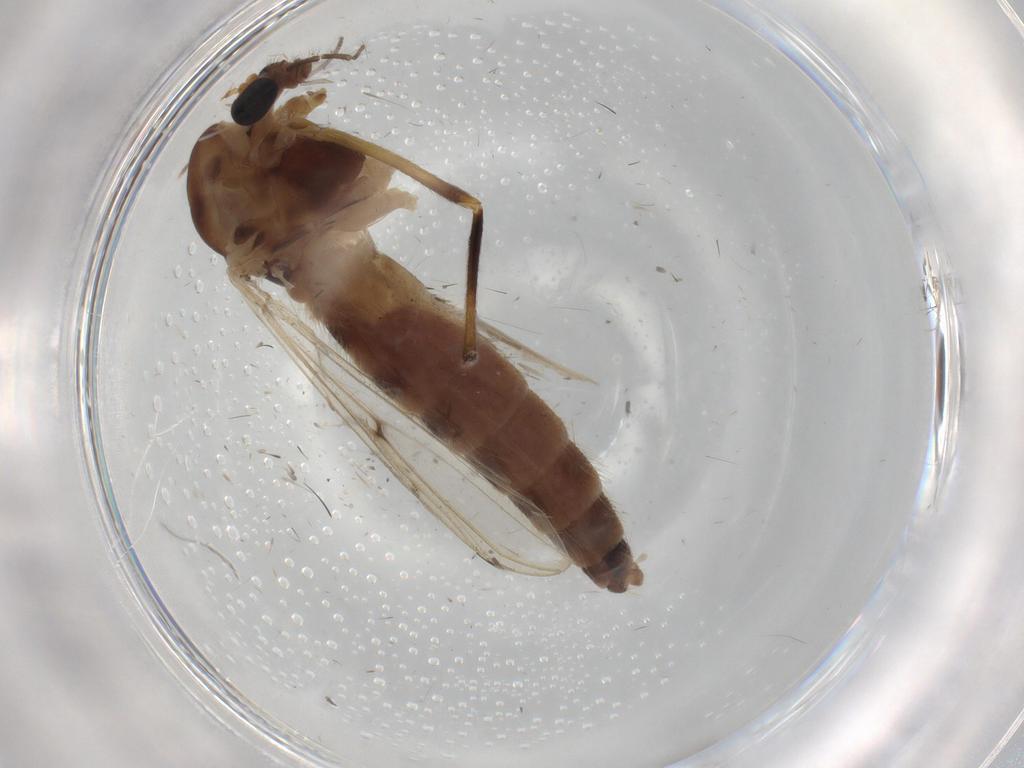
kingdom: Animalia
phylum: Arthropoda
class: Insecta
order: Diptera
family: Chironomidae
